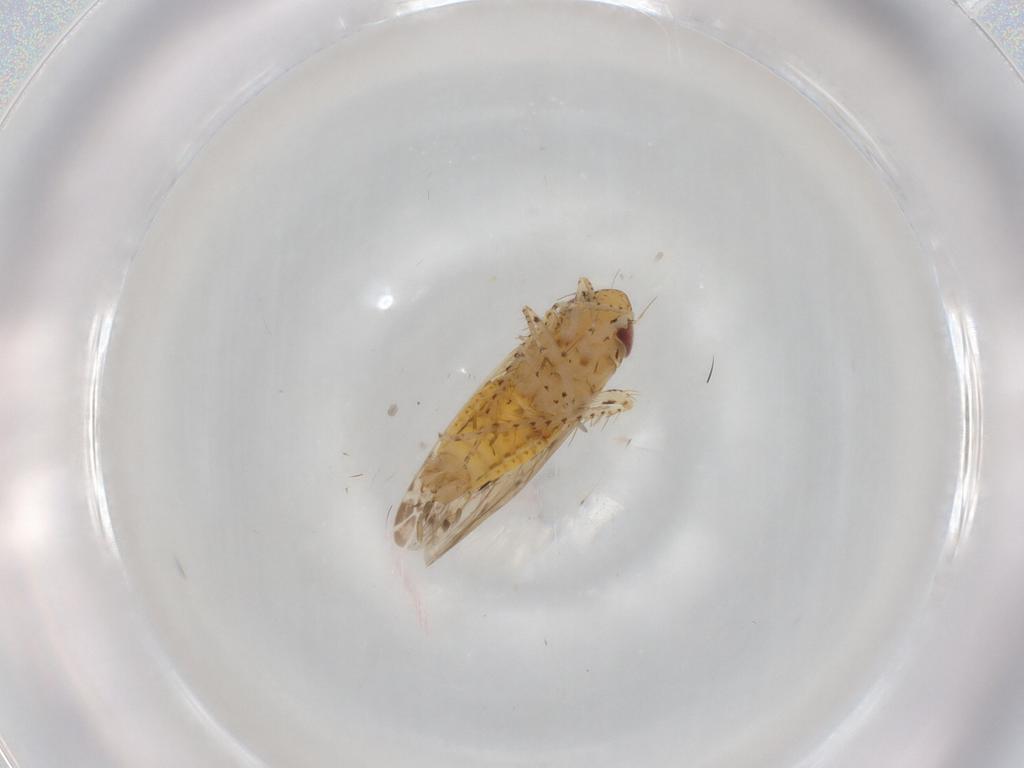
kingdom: Animalia
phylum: Arthropoda
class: Insecta
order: Hemiptera
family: Cicadellidae
